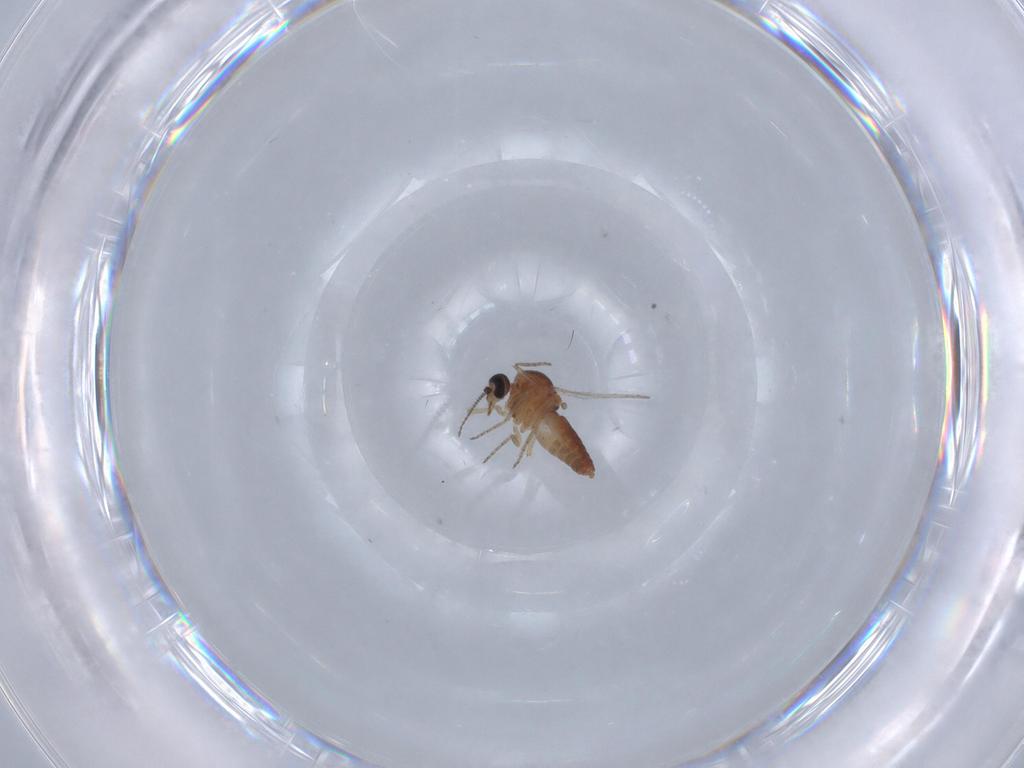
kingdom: Animalia
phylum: Arthropoda
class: Insecta
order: Diptera
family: Ceratopogonidae
